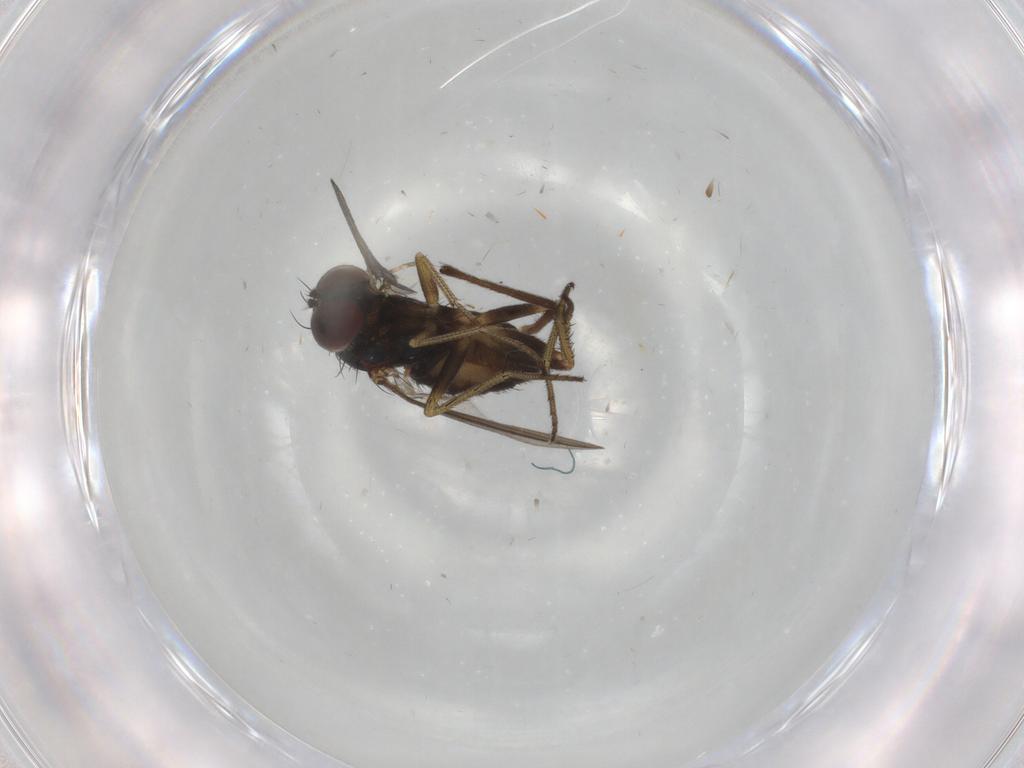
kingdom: Animalia
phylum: Arthropoda
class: Insecta
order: Diptera
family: Chironomidae
